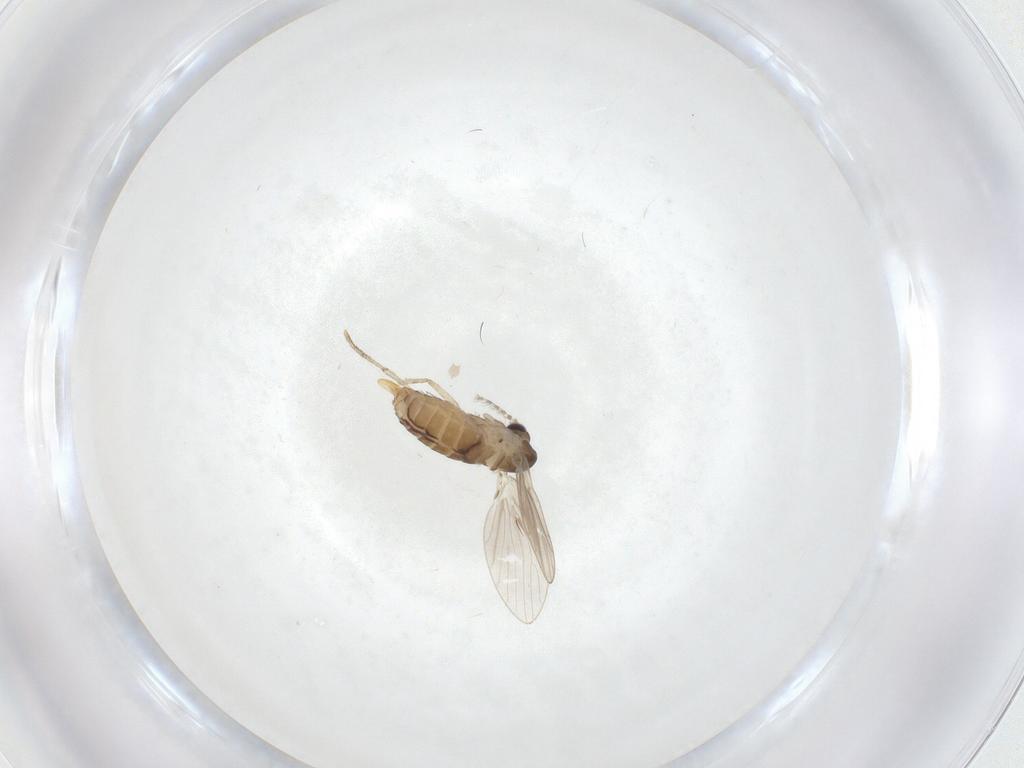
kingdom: Animalia
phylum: Arthropoda
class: Insecta
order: Diptera
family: Psychodidae
